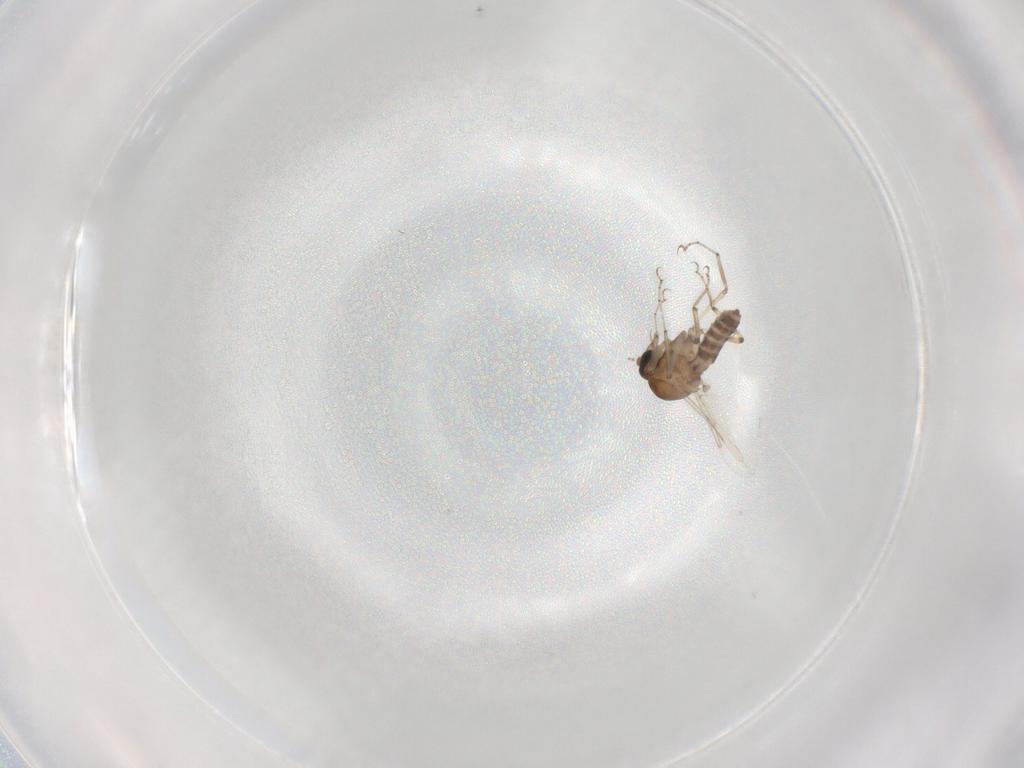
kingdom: Animalia
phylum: Arthropoda
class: Insecta
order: Diptera
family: Ceratopogonidae
